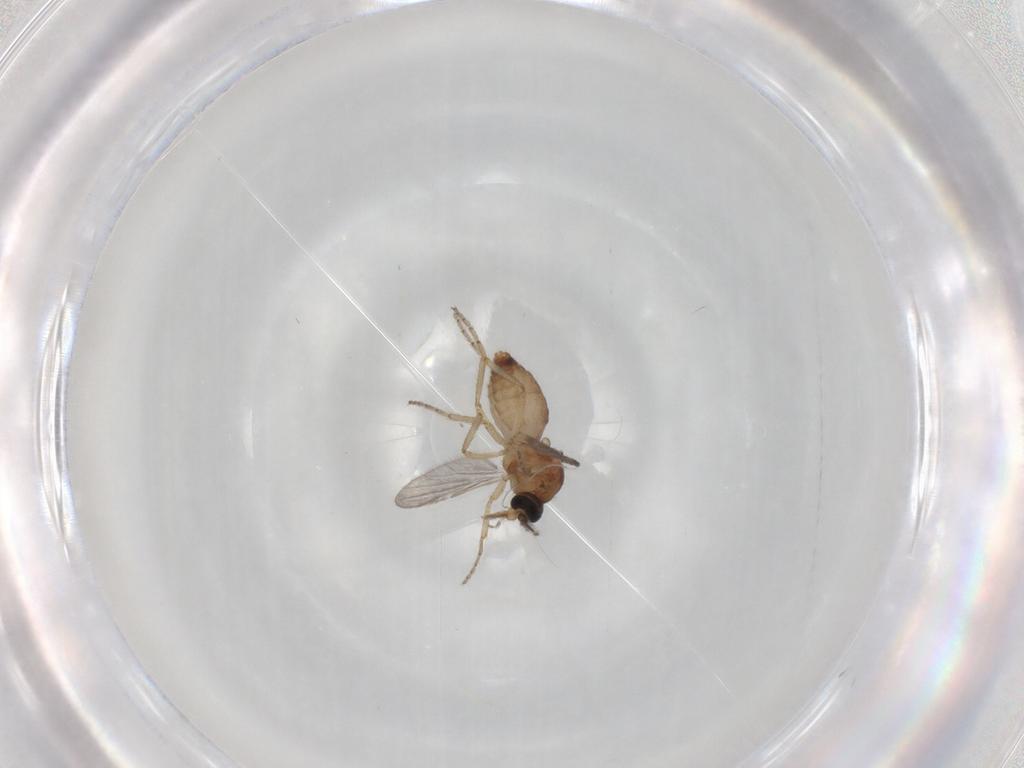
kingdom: Animalia
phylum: Arthropoda
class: Insecta
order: Diptera
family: Ceratopogonidae
